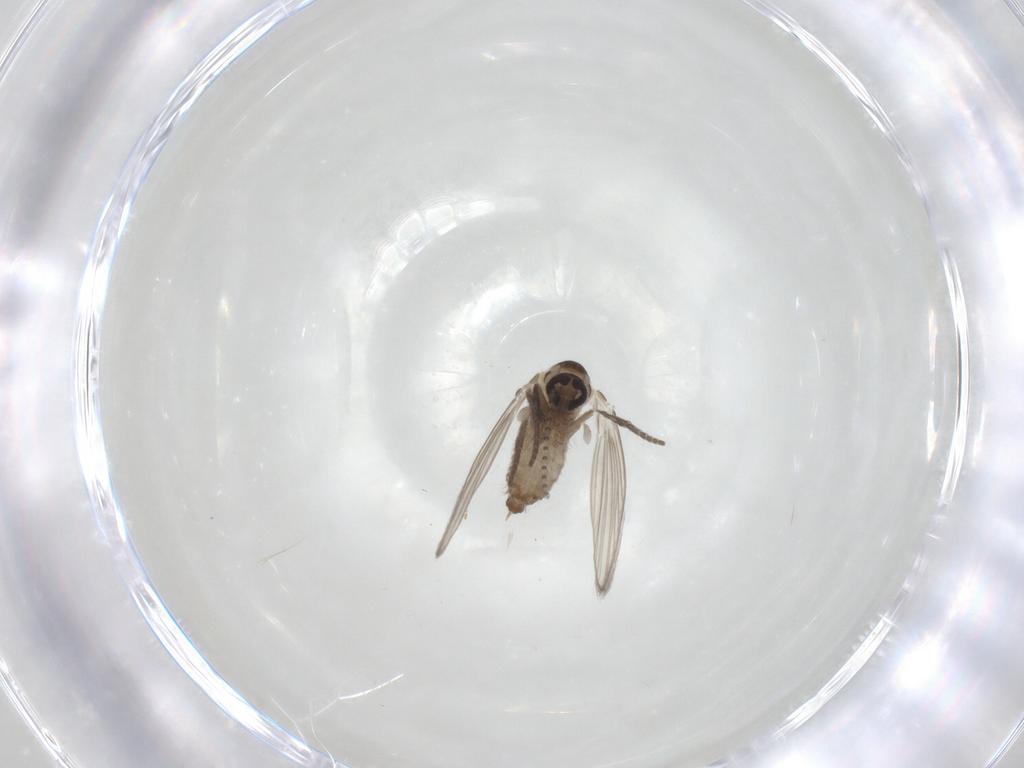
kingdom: Animalia
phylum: Arthropoda
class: Insecta
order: Diptera
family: Psychodidae
